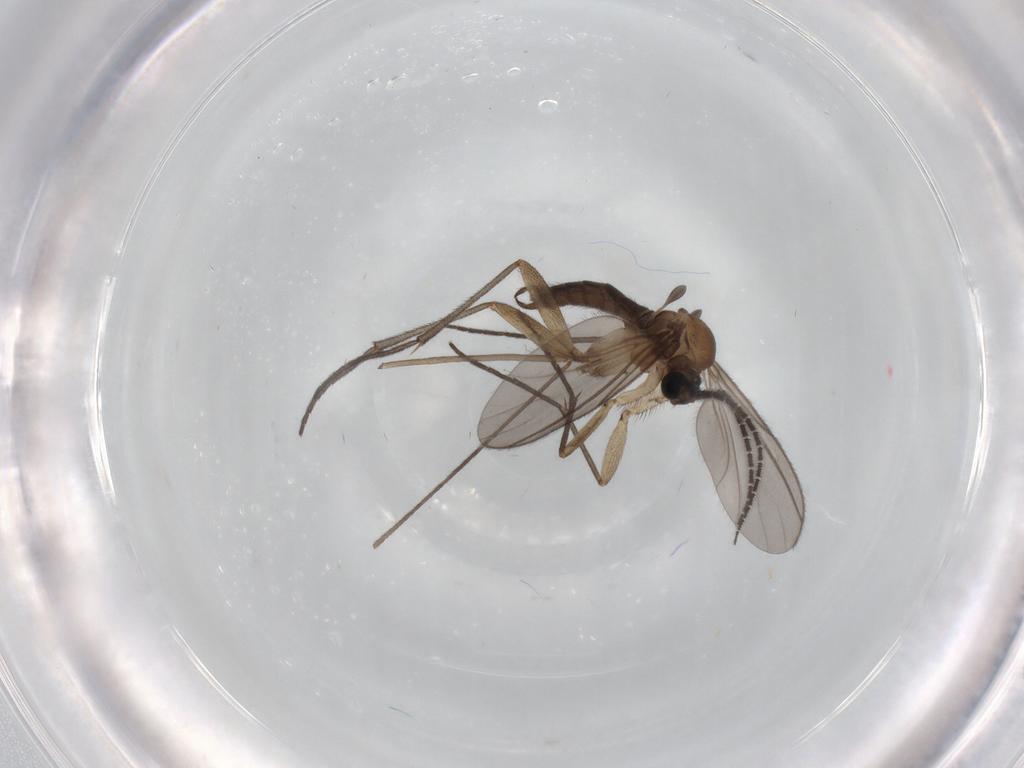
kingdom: Animalia
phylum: Arthropoda
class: Insecta
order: Diptera
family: Sciaridae
